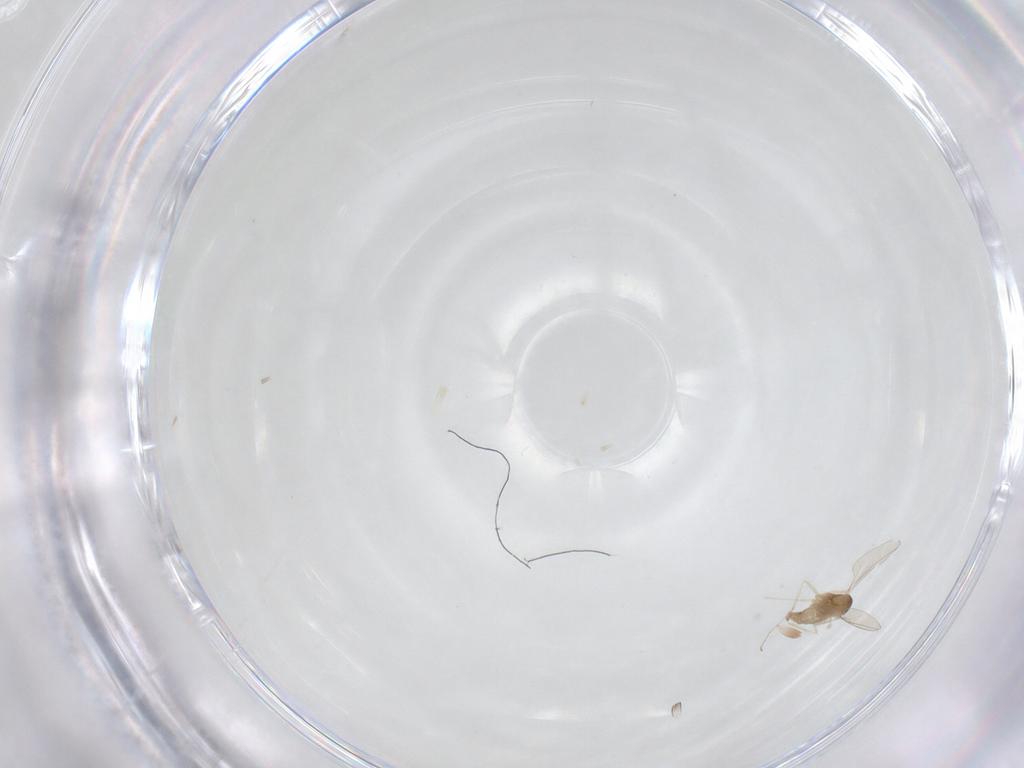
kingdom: Animalia
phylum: Arthropoda
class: Insecta
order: Diptera
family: Cecidomyiidae
